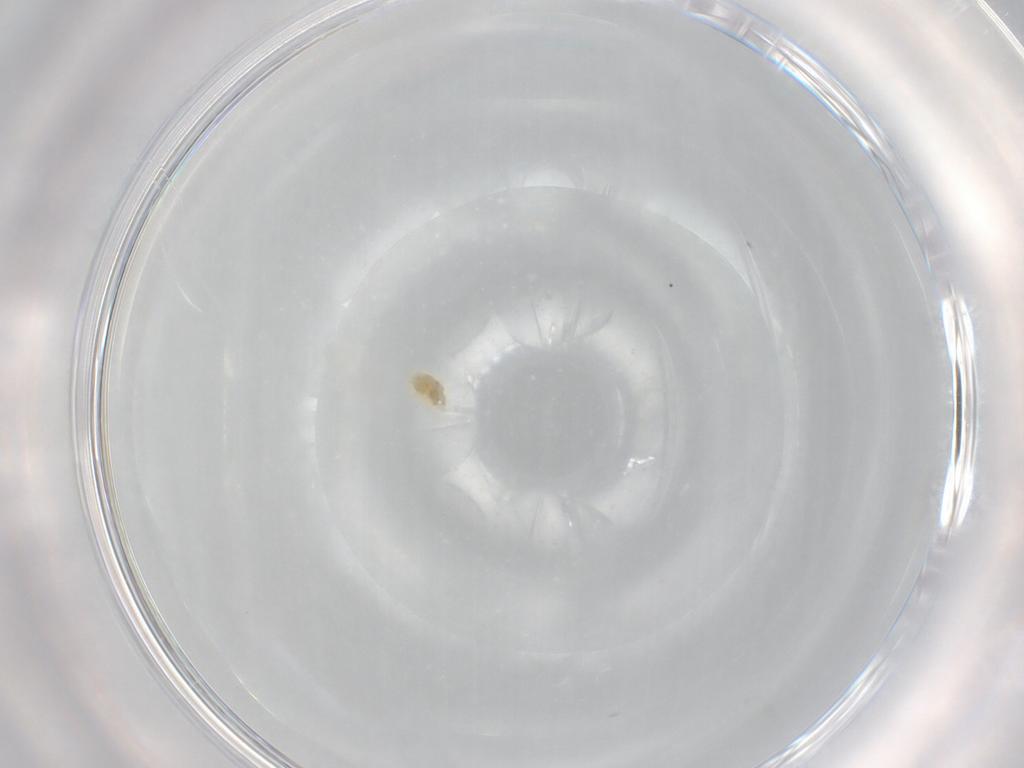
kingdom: Animalia
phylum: Arthropoda
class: Arachnida
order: Trombidiformes
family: Eupodidae
